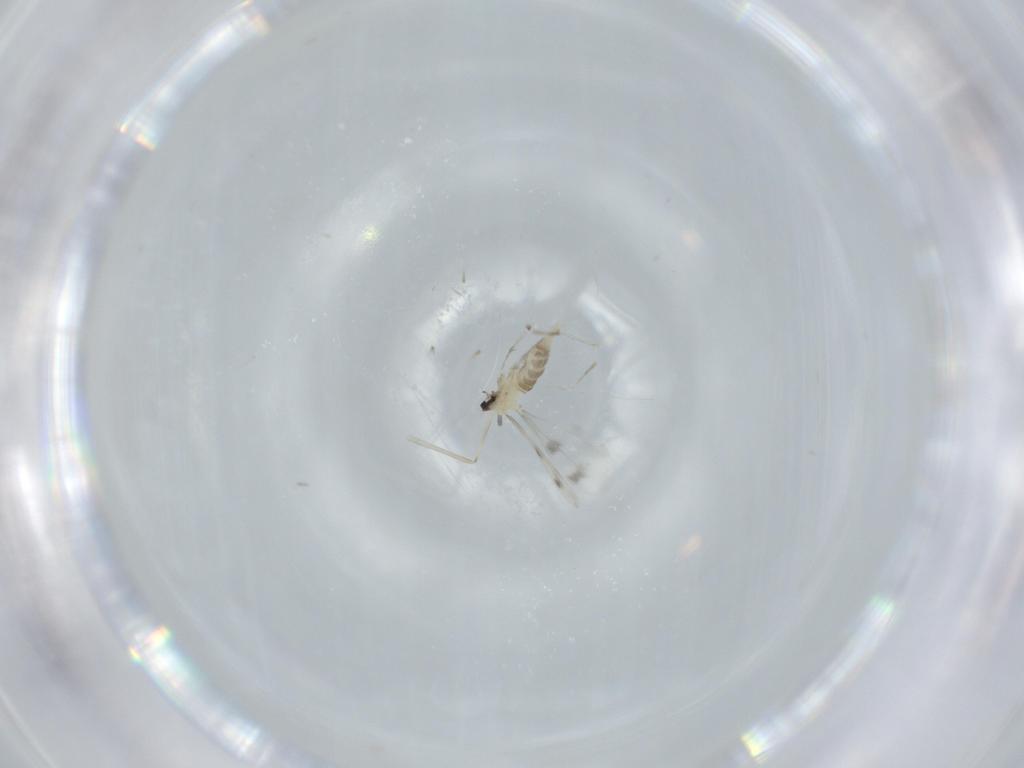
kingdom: Animalia
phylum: Arthropoda
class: Insecta
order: Diptera
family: Cecidomyiidae
